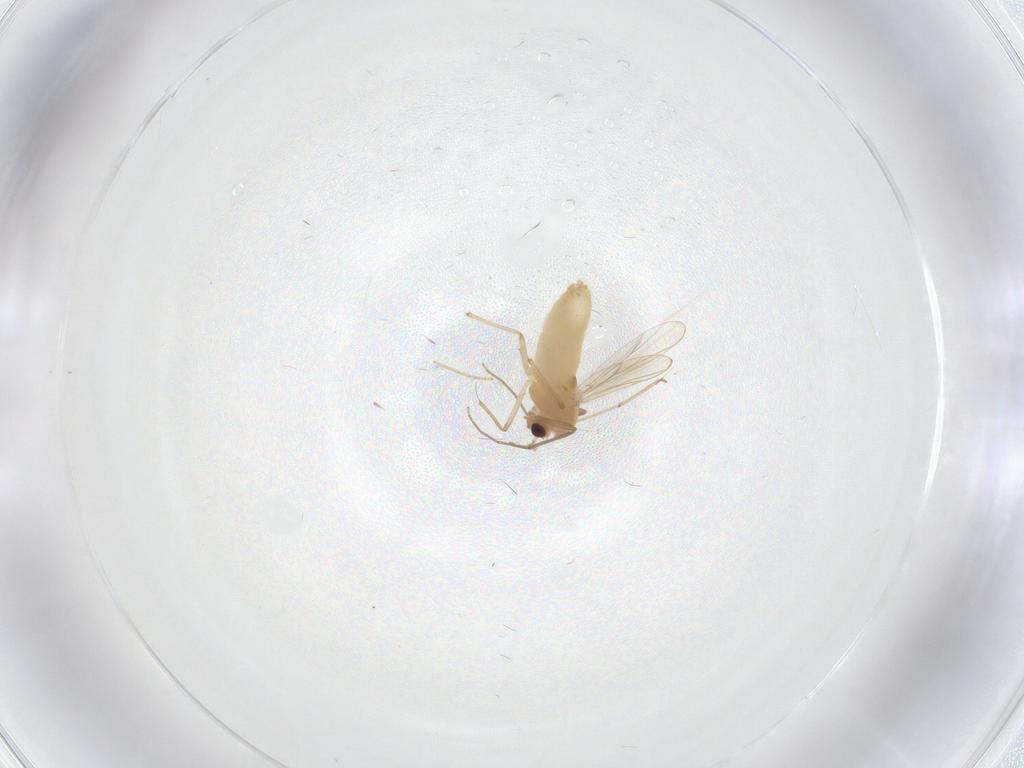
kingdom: Animalia
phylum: Arthropoda
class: Insecta
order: Diptera
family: Chironomidae
